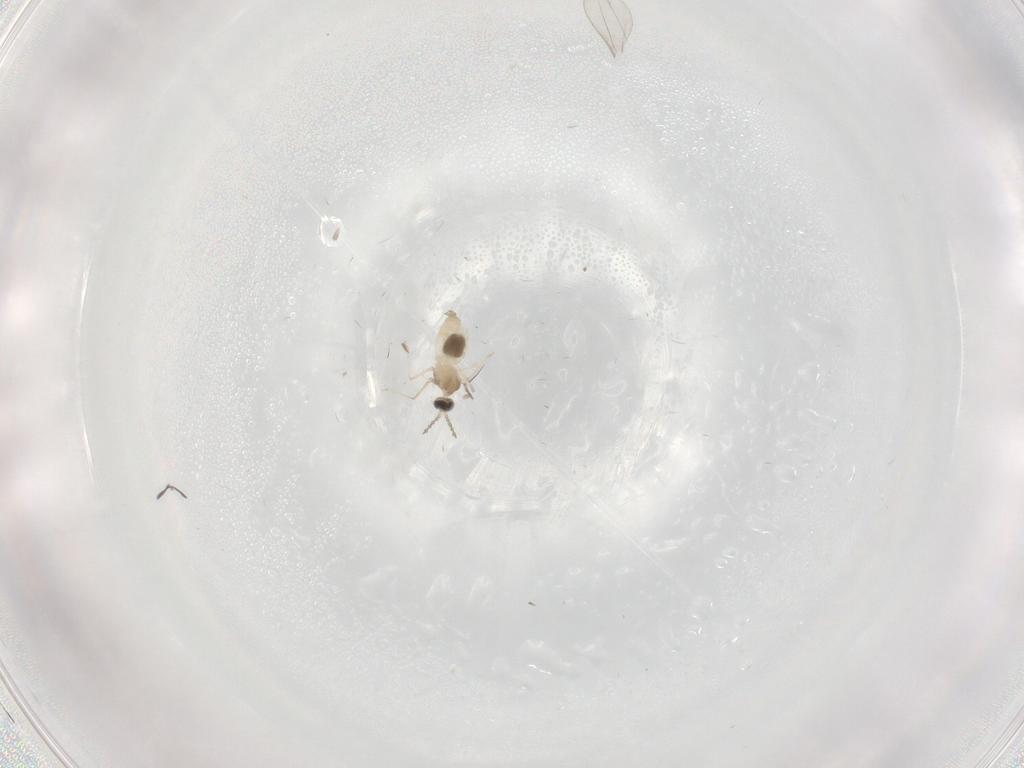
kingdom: Animalia
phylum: Arthropoda
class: Insecta
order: Diptera
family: Cecidomyiidae
